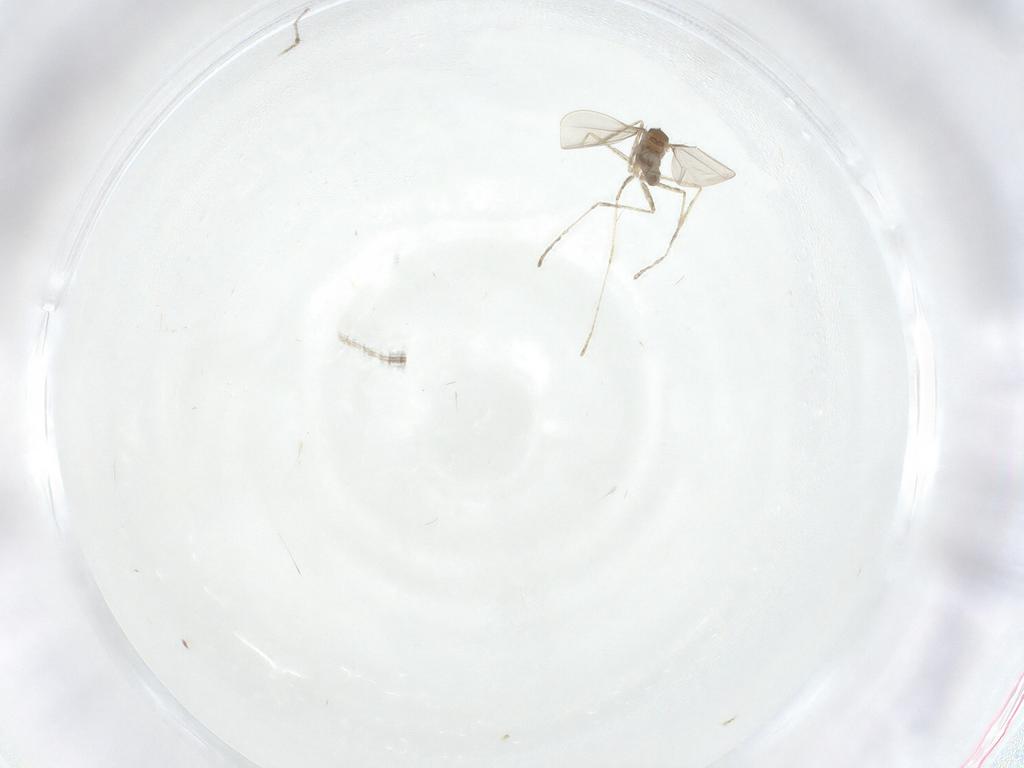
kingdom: Animalia
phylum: Arthropoda
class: Insecta
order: Diptera
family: Cecidomyiidae
